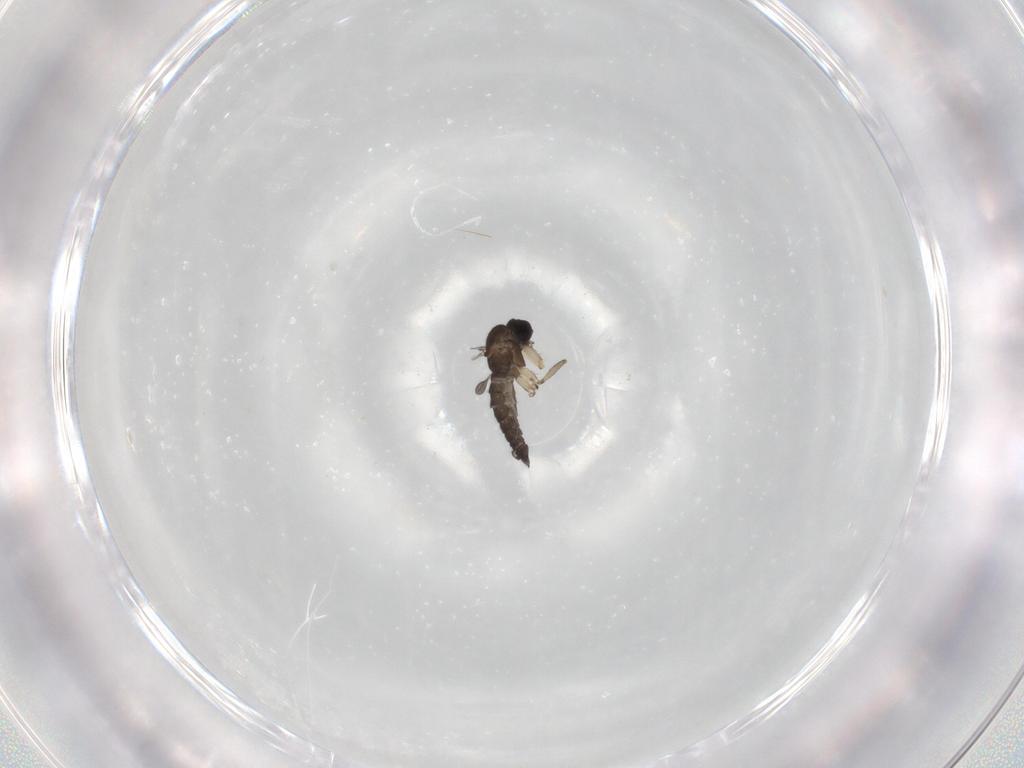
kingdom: Animalia
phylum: Arthropoda
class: Insecta
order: Diptera
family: Sciaridae
